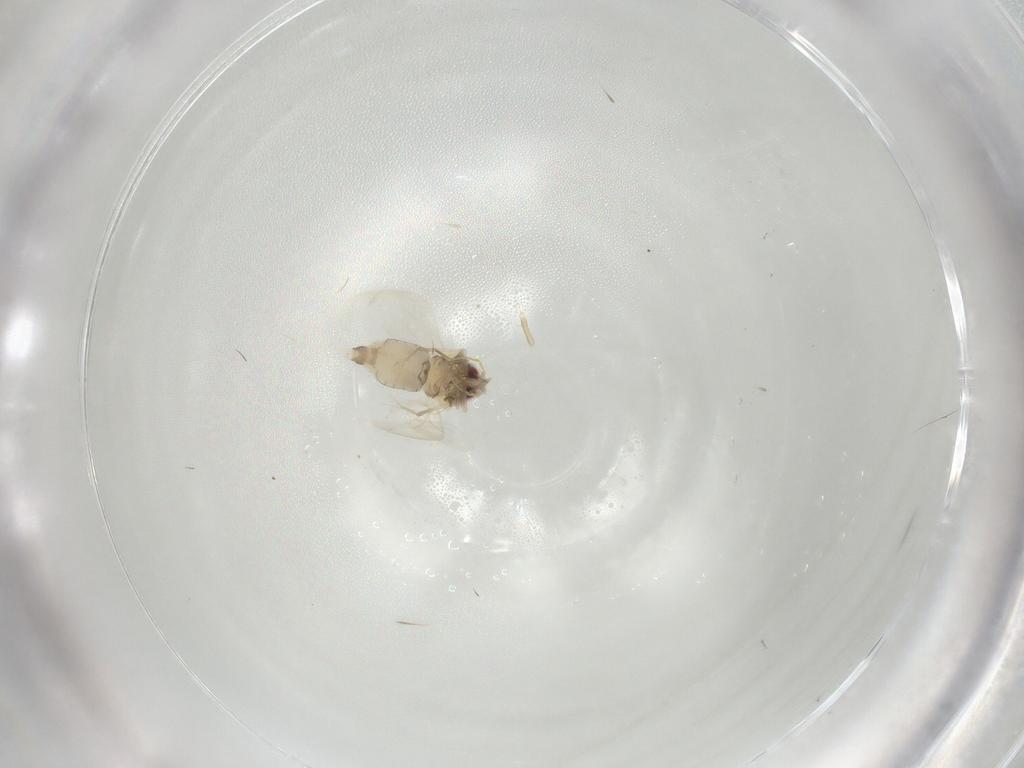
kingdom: Animalia
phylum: Arthropoda
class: Insecta
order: Hemiptera
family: Aleyrodidae
